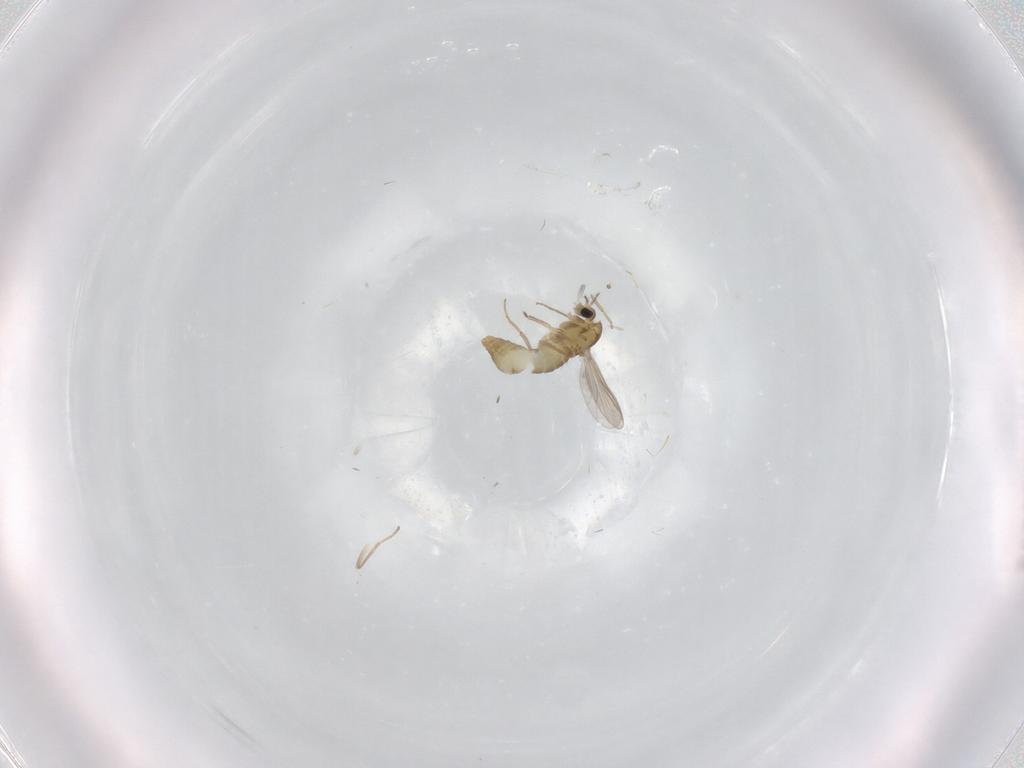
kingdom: Animalia
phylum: Arthropoda
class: Insecta
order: Diptera
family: Chironomidae
